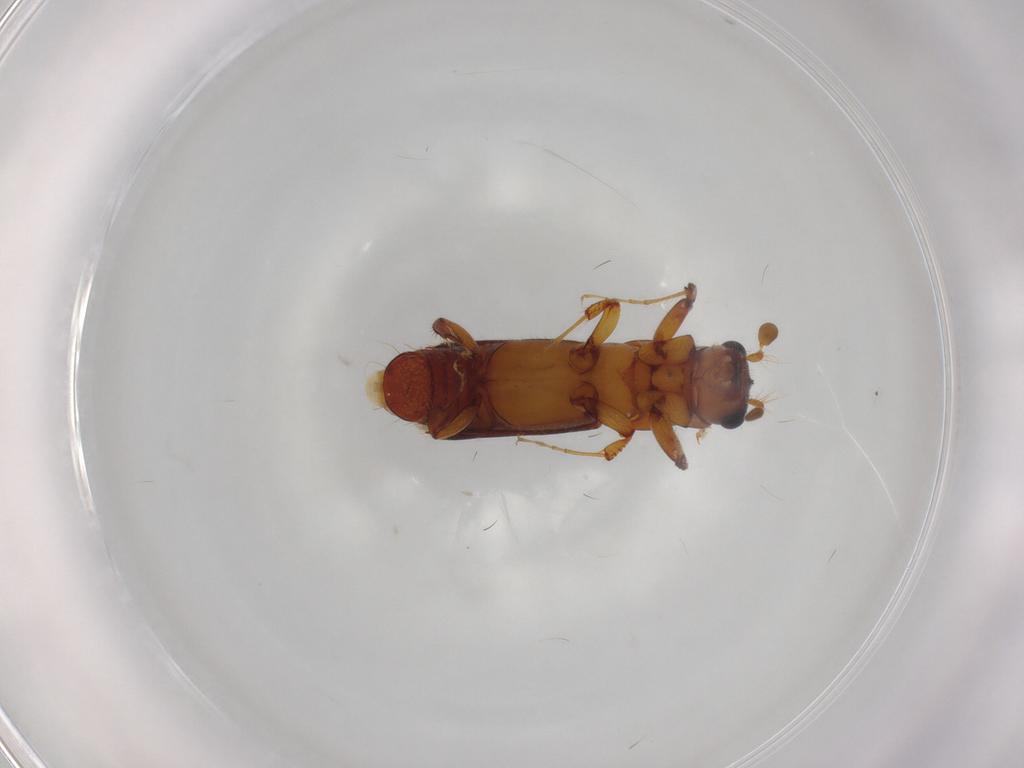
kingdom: Animalia
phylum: Arthropoda
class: Insecta
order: Coleoptera
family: Curculionidae
